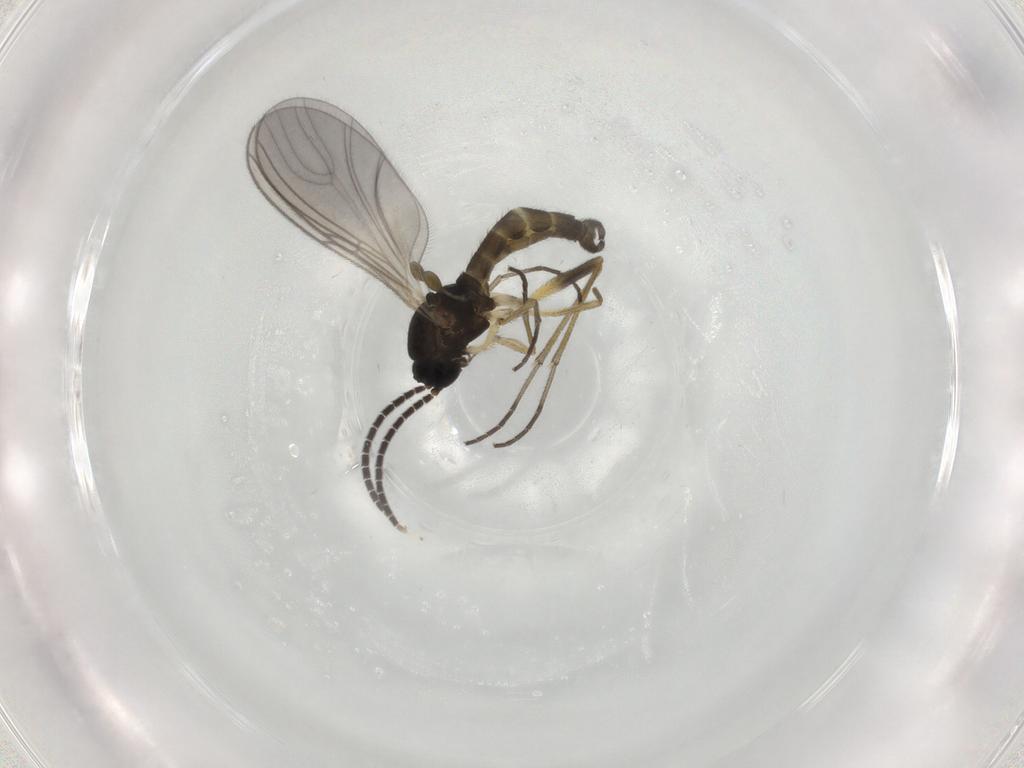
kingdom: Animalia
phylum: Arthropoda
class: Insecta
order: Diptera
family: Sciaridae
